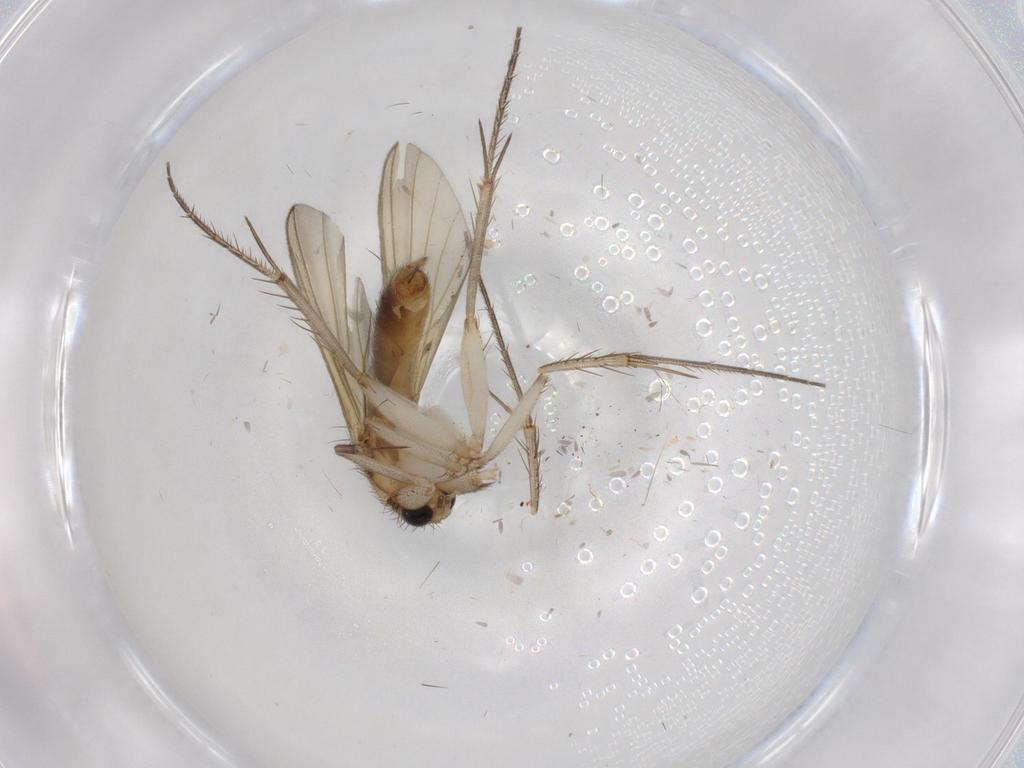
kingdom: Animalia
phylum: Arthropoda
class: Insecta
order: Diptera
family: Mycetophilidae
